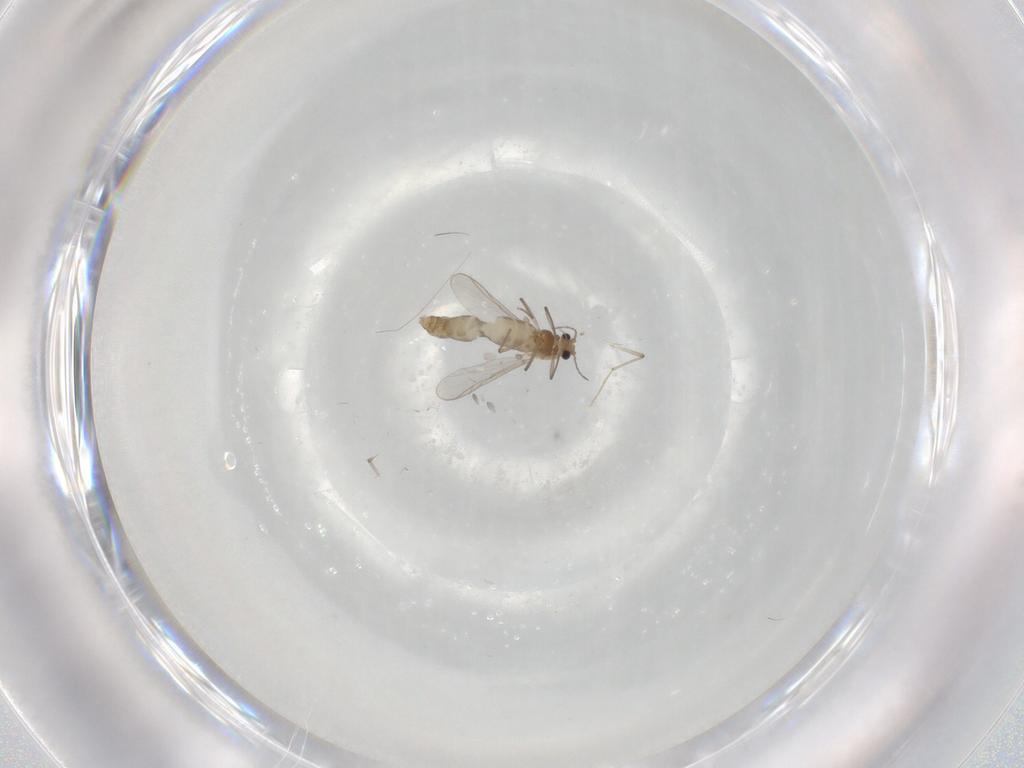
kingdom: Animalia
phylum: Arthropoda
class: Insecta
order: Diptera
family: Chironomidae
